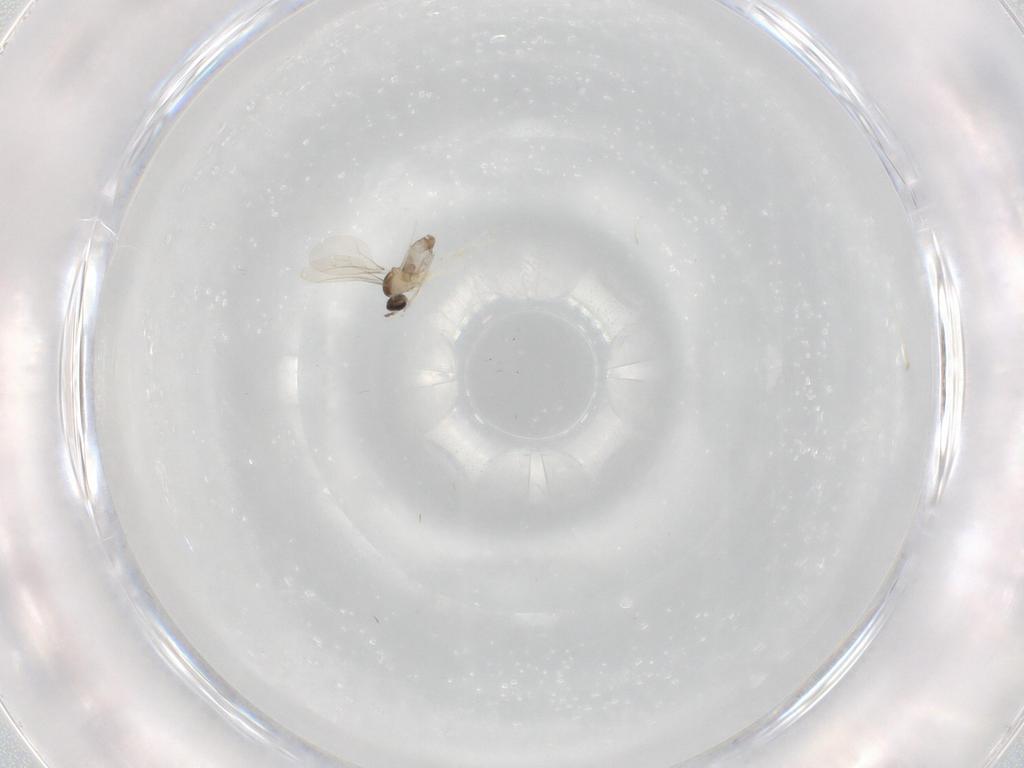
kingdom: Animalia
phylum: Arthropoda
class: Insecta
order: Diptera
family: Cecidomyiidae
